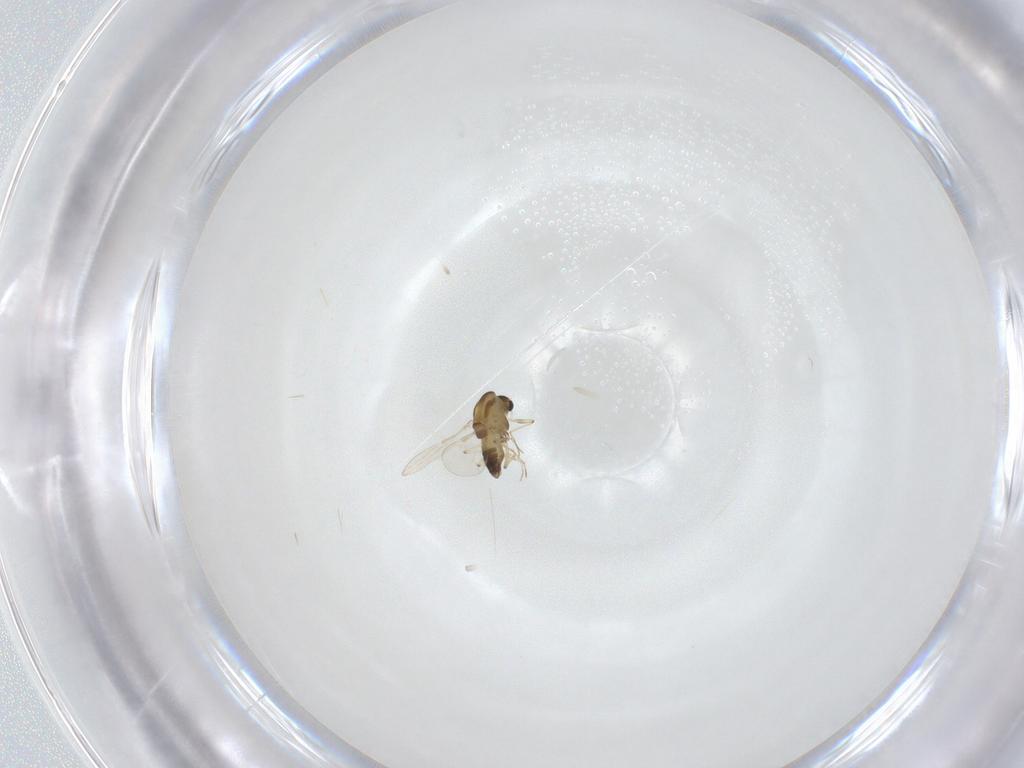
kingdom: Animalia
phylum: Arthropoda
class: Insecta
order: Diptera
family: Chironomidae
